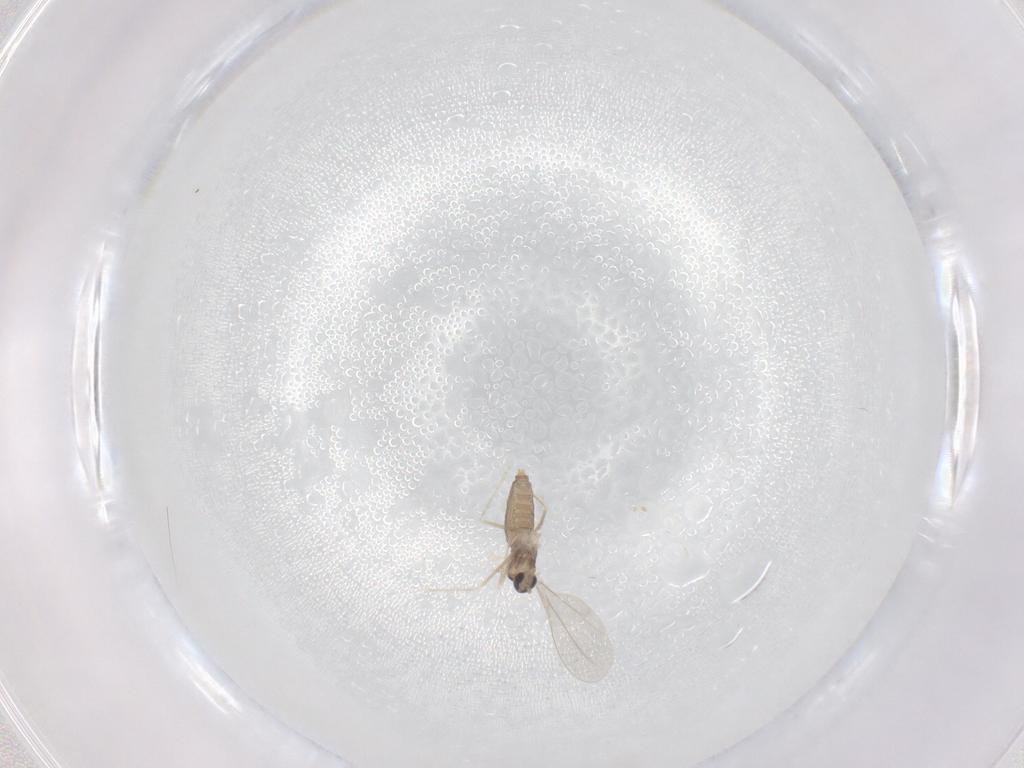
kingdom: Animalia
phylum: Arthropoda
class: Insecta
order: Diptera
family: Cecidomyiidae
